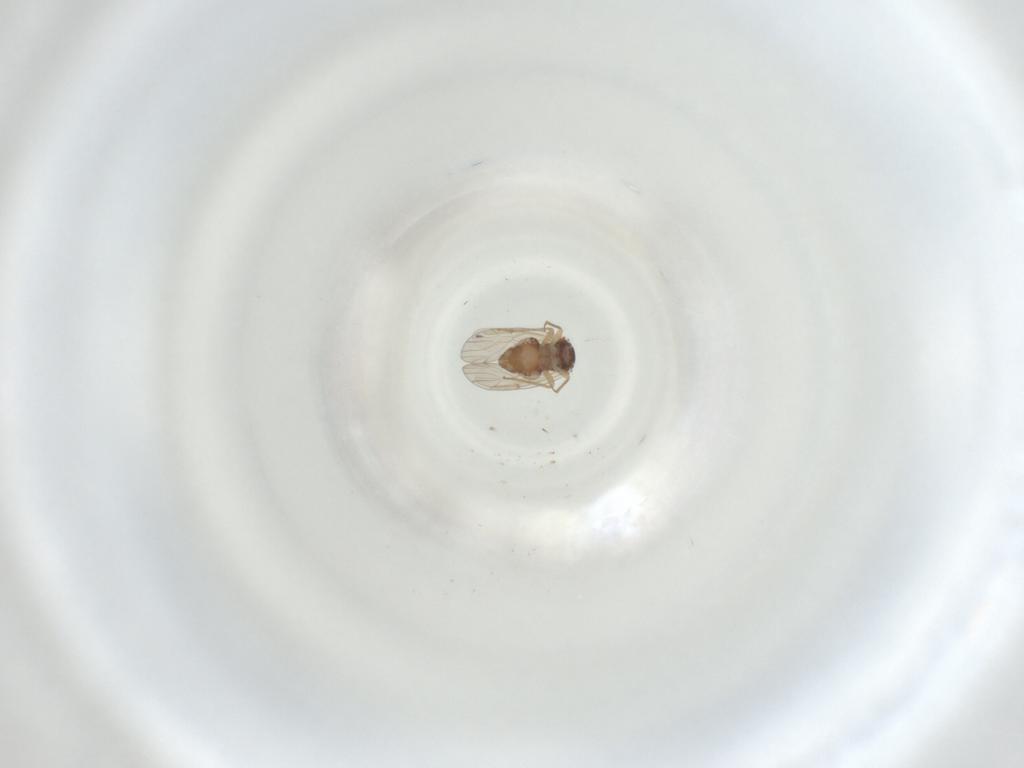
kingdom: Animalia
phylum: Arthropoda
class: Insecta
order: Psocodea
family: Ectopsocidae
